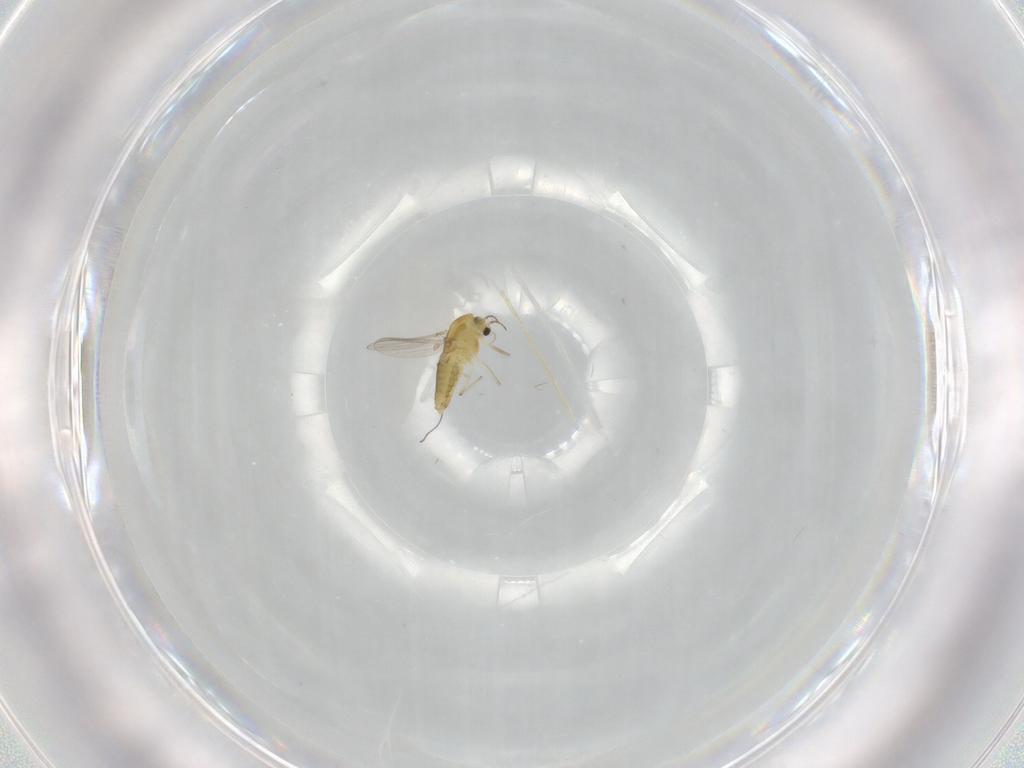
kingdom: Animalia
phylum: Arthropoda
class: Insecta
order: Diptera
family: Chironomidae
